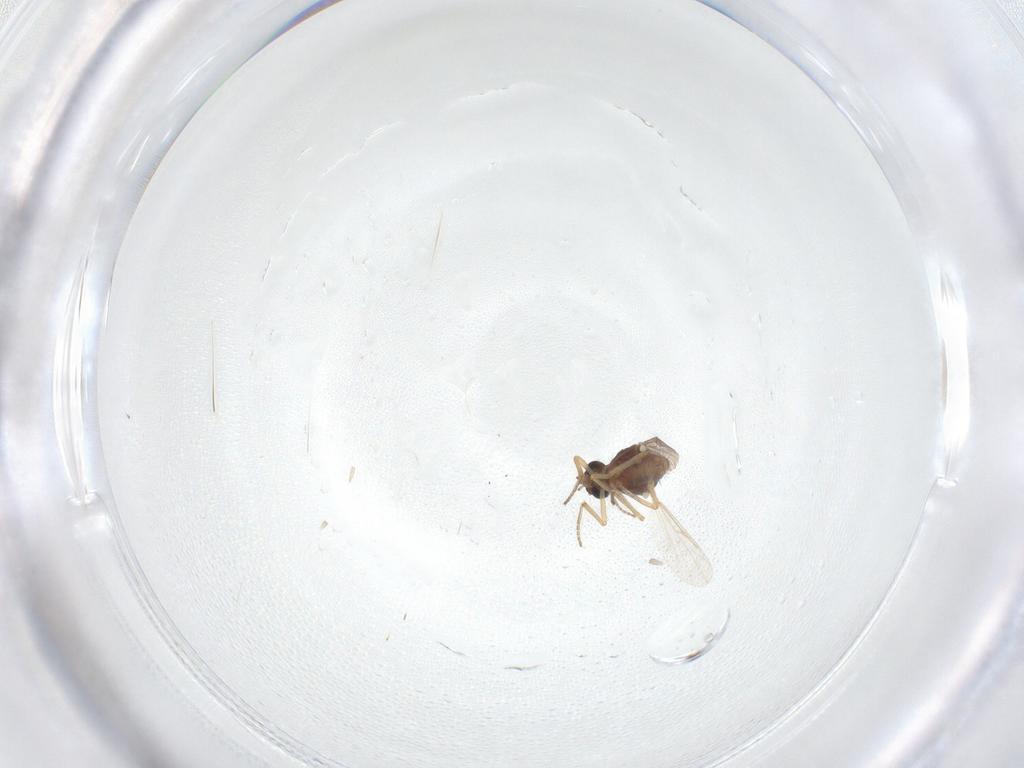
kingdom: Animalia
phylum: Arthropoda
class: Insecta
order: Diptera
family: Ceratopogonidae
